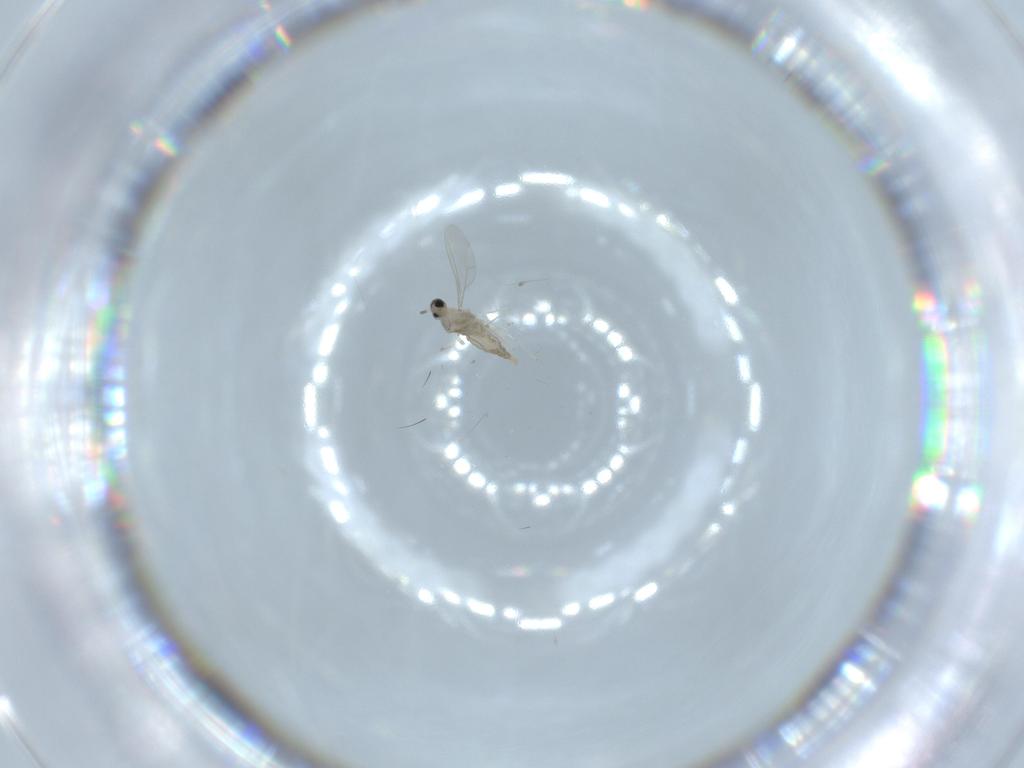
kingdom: Animalia
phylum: Arthropoda
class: Insecta
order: Diptera
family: Cecidomyiidae
